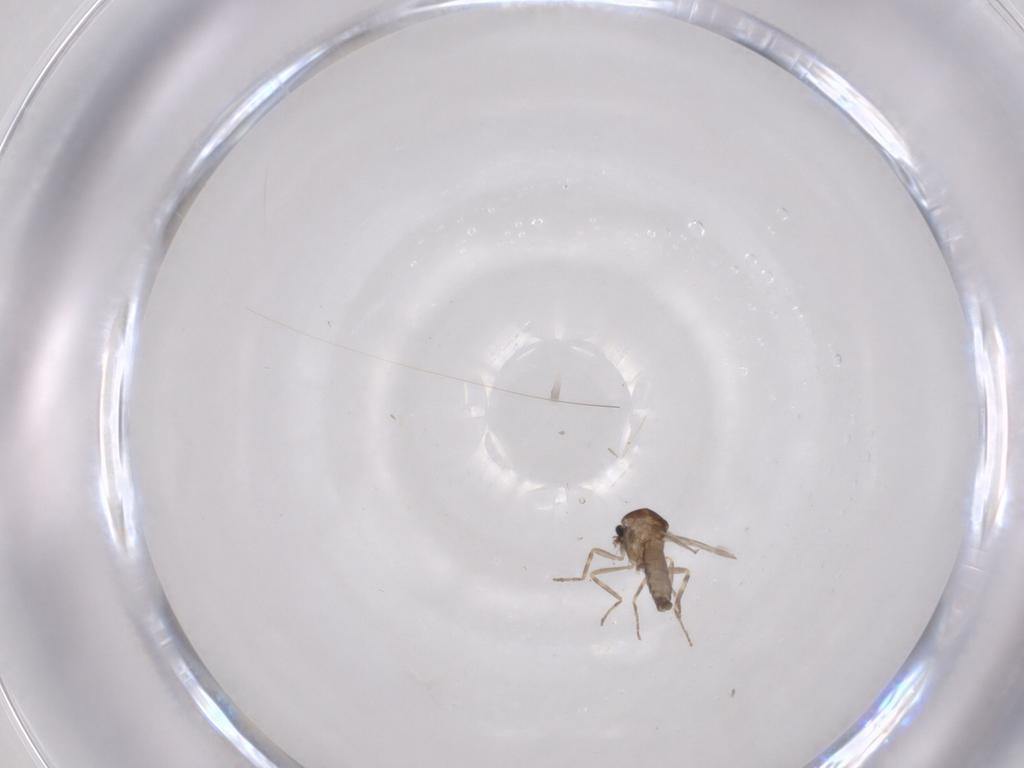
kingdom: Animalia
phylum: Arthropoda
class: Insecta
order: Diptera
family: Ceratopogonidae
